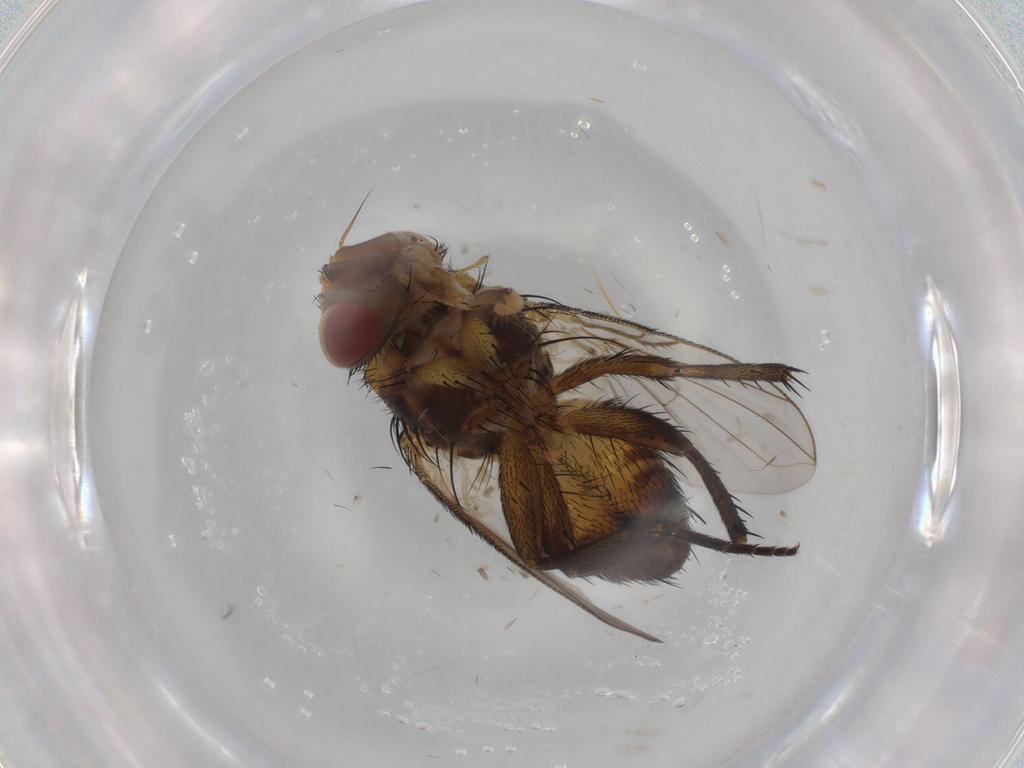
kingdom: Animalia
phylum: Arthropoda
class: Insecta
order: Diptera
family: Tachinidae
